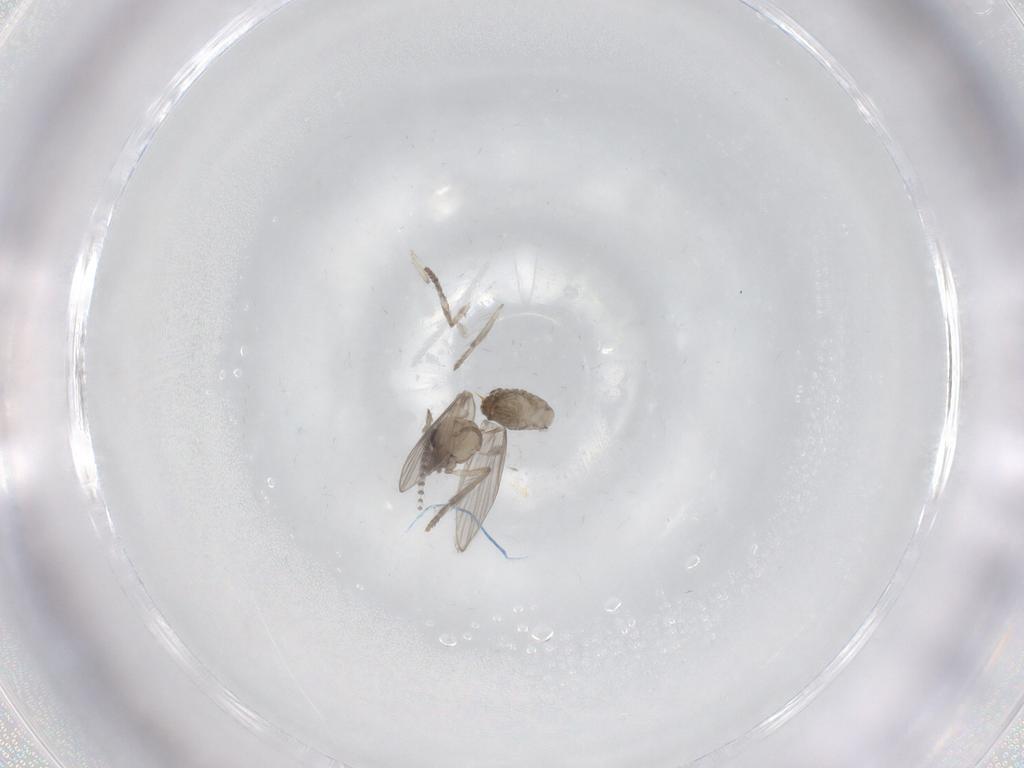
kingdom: Animalia
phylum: Arthropoda
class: Insecta
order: Diptera
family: Psychodidae
